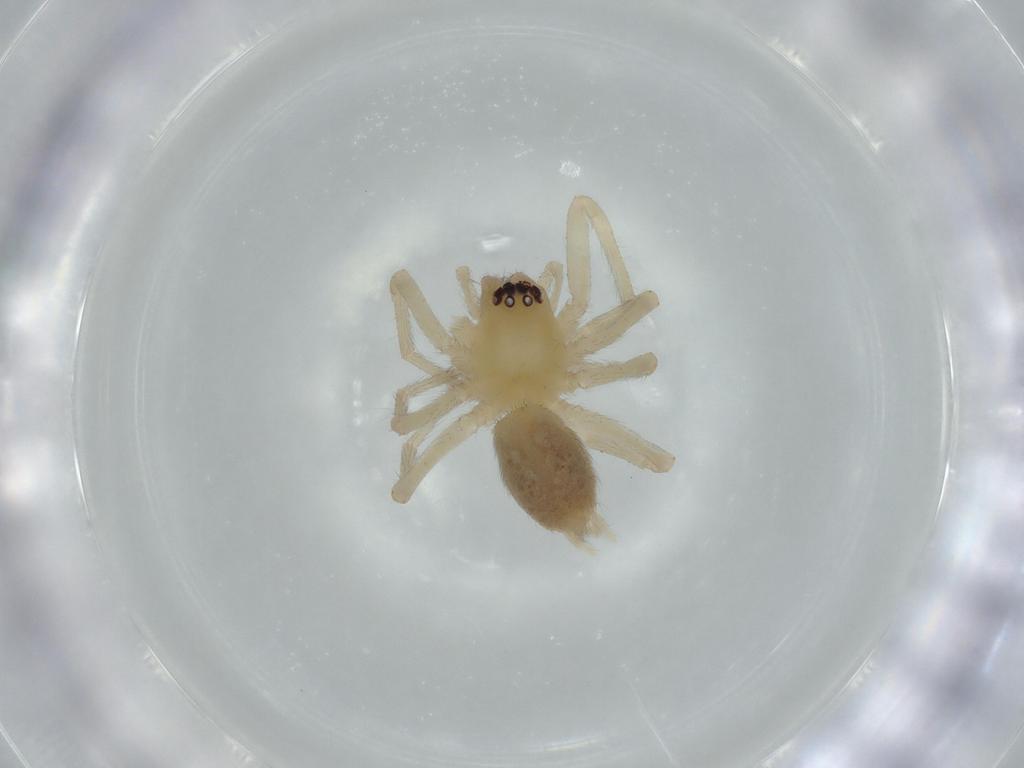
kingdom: Animalia
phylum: Arthropoda
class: Arachnida
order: Araneae
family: Cheiracanthiidae
